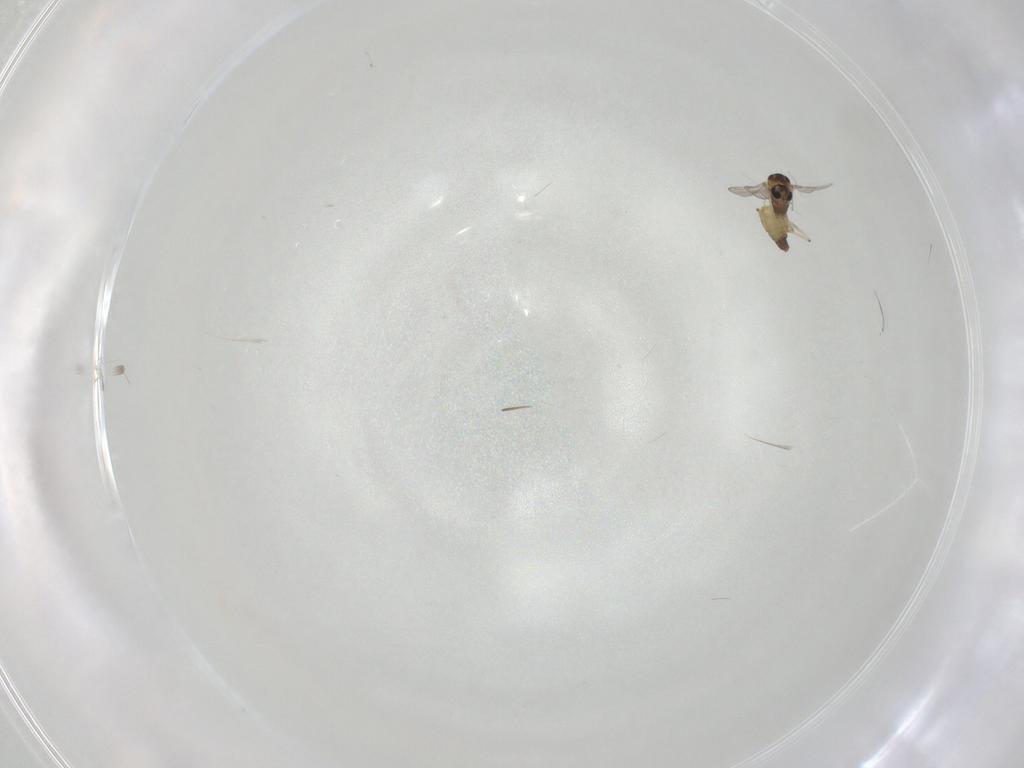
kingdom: Animalia
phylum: Arthropoda
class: Insecta
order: Diptera
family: Chironomidae
